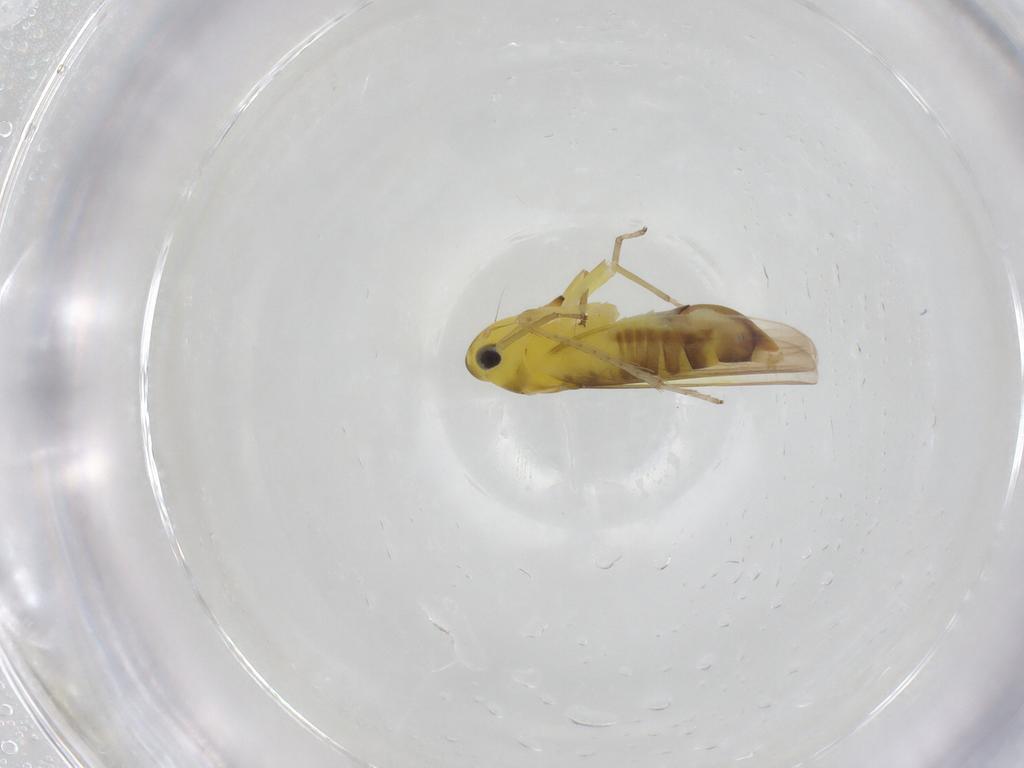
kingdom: Animalia
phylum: Arthropoda
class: Insecta
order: Hemiptera
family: Cicadellidae
